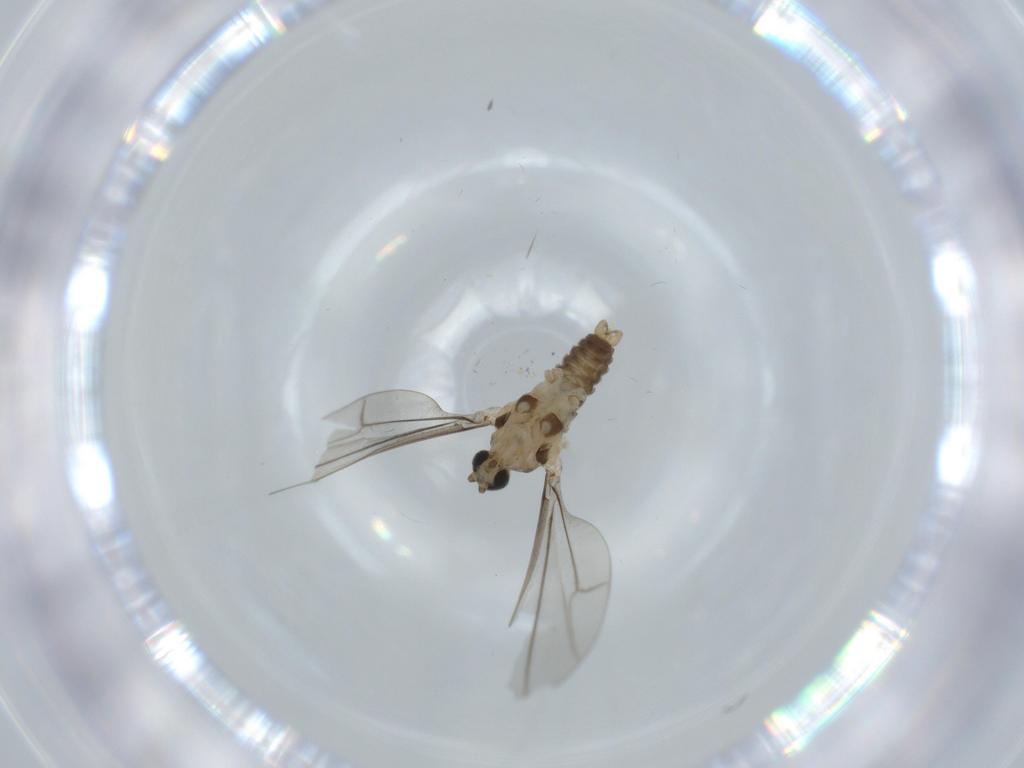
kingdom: Animalia
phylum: Arthropoda
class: Insecta
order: Diptera
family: Cecidomyiidae
